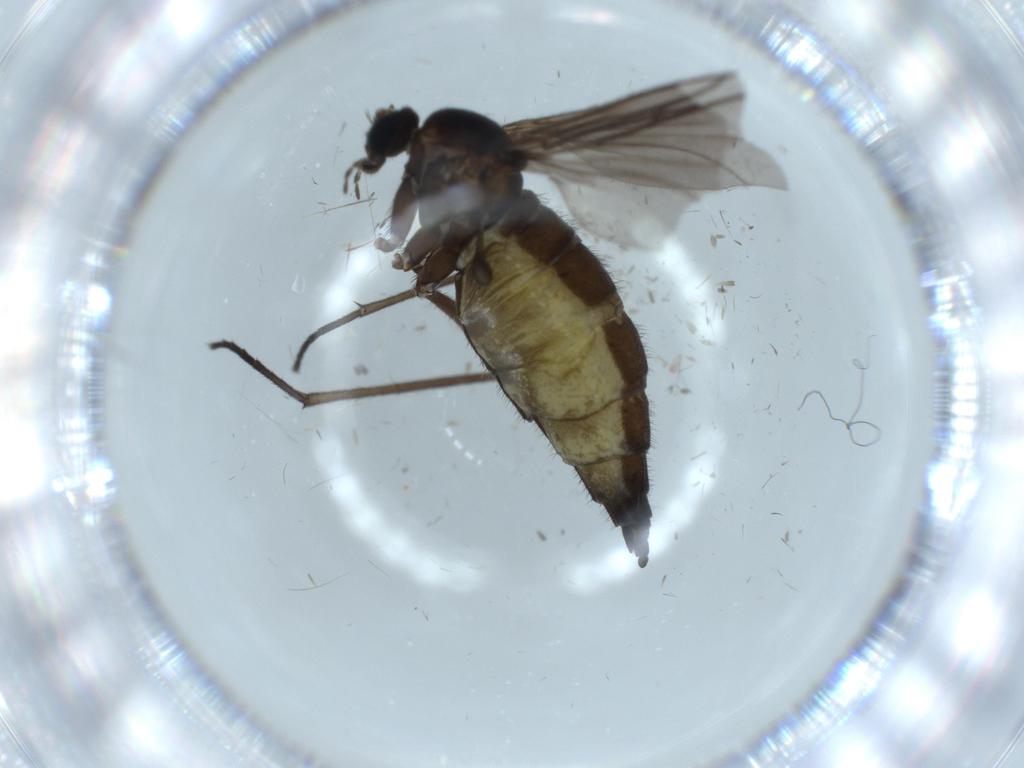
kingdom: Animalia
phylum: Arthropoda
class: Insecta
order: Diptera
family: Sciaridae
